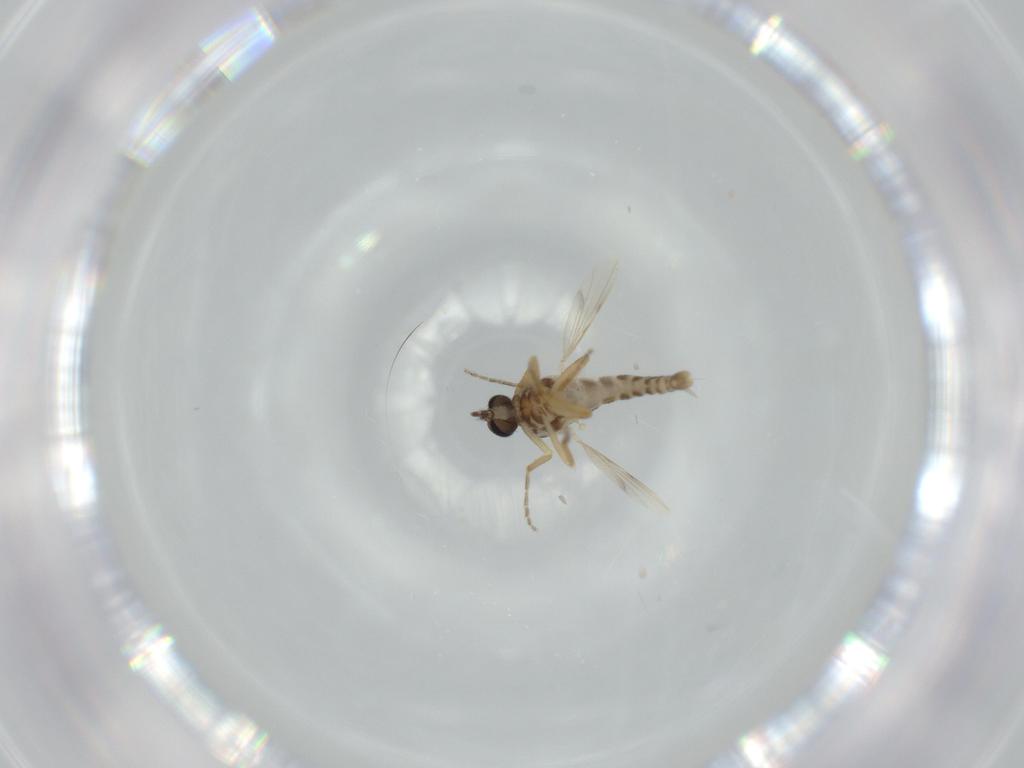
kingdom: Animalia
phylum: Arthropoda
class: Insecta
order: Diptera
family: Ceratopogonidae
